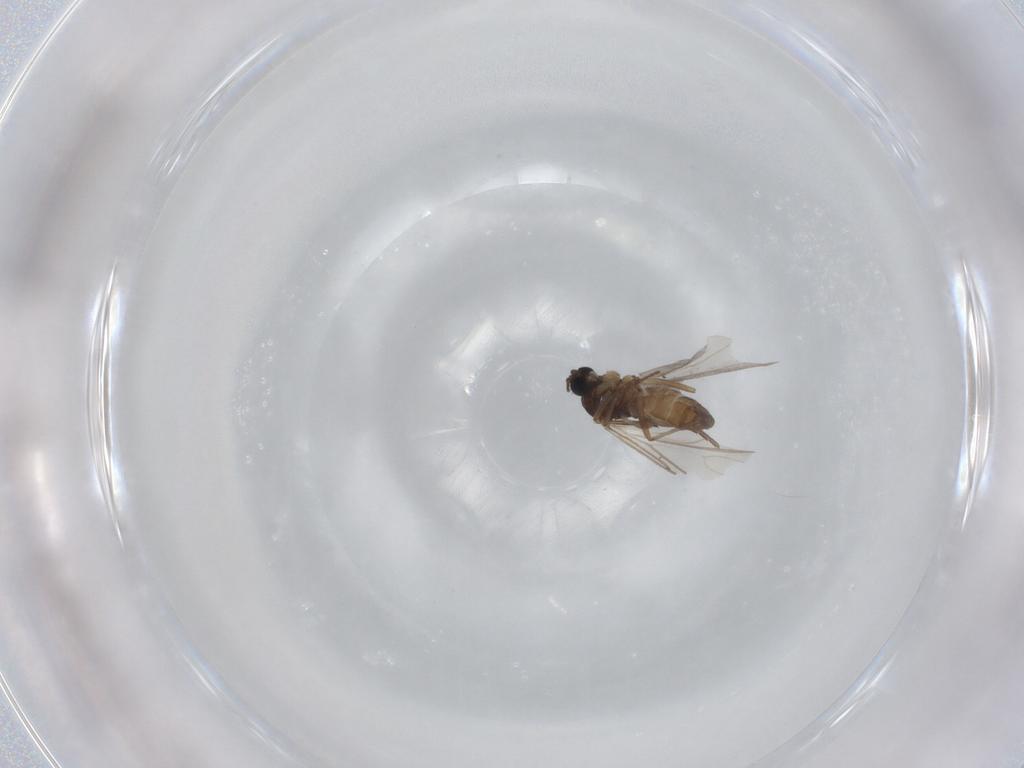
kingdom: Animalia
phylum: Arthropoda
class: Insecta
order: Diptera
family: Sciaridae
